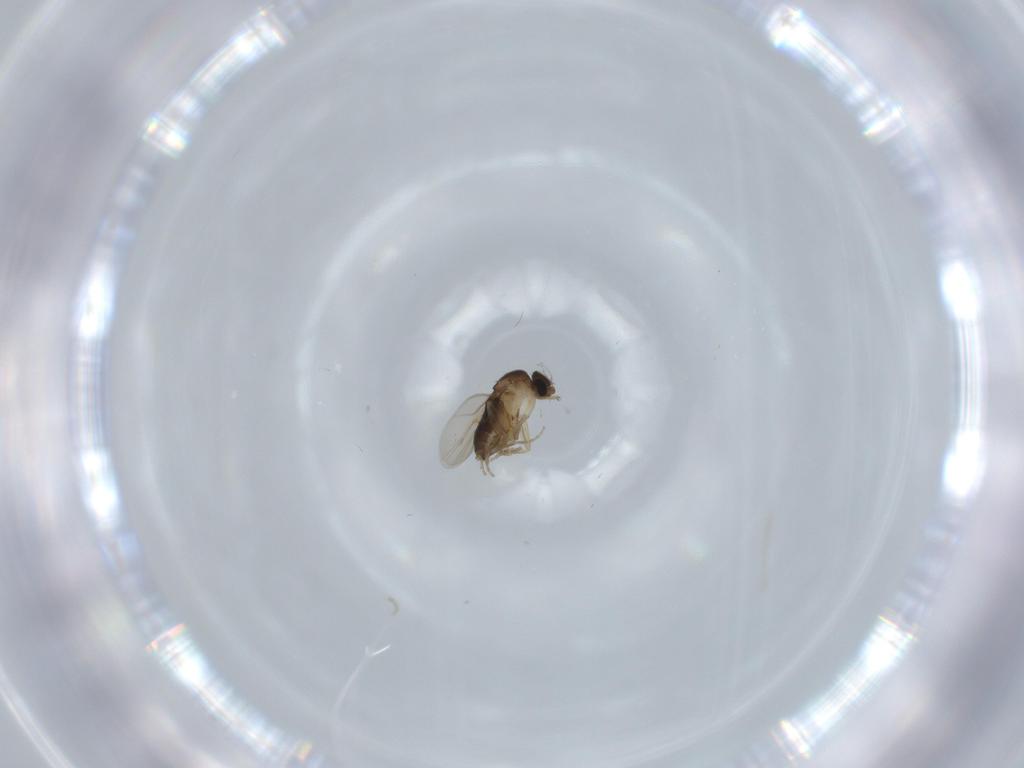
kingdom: Animalia
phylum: Arthropoda
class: Insecta
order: Diptera
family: Phoridae
